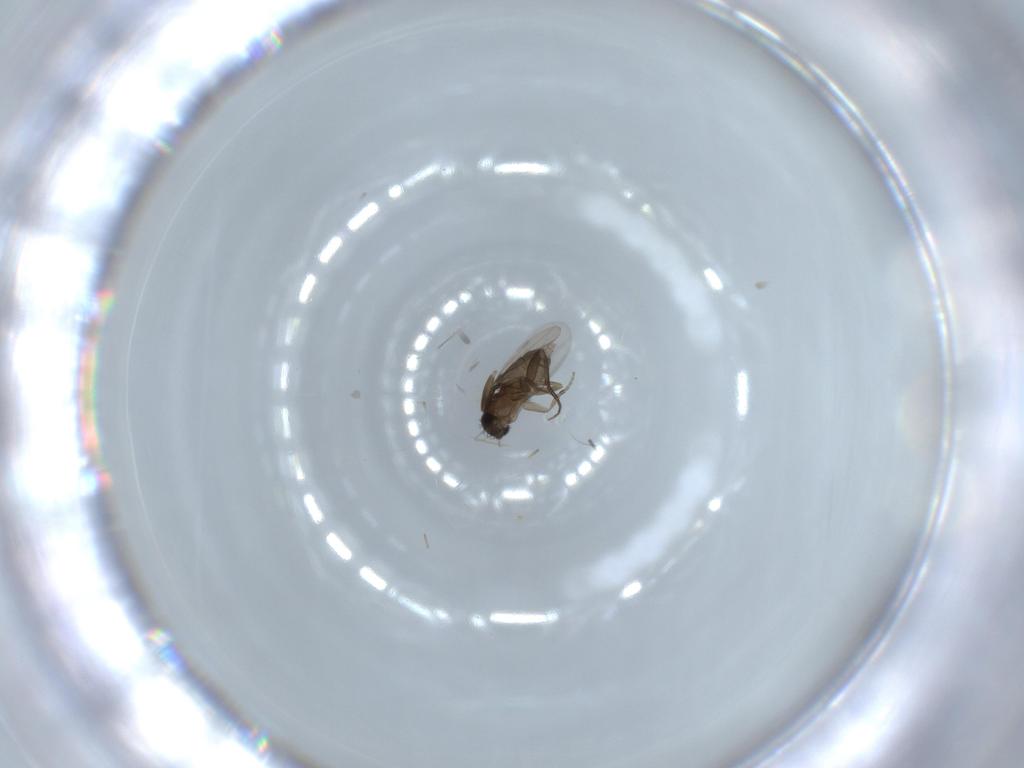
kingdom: Animalia
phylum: Arthropoda
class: Insecta
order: Diptera
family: Phoridae
